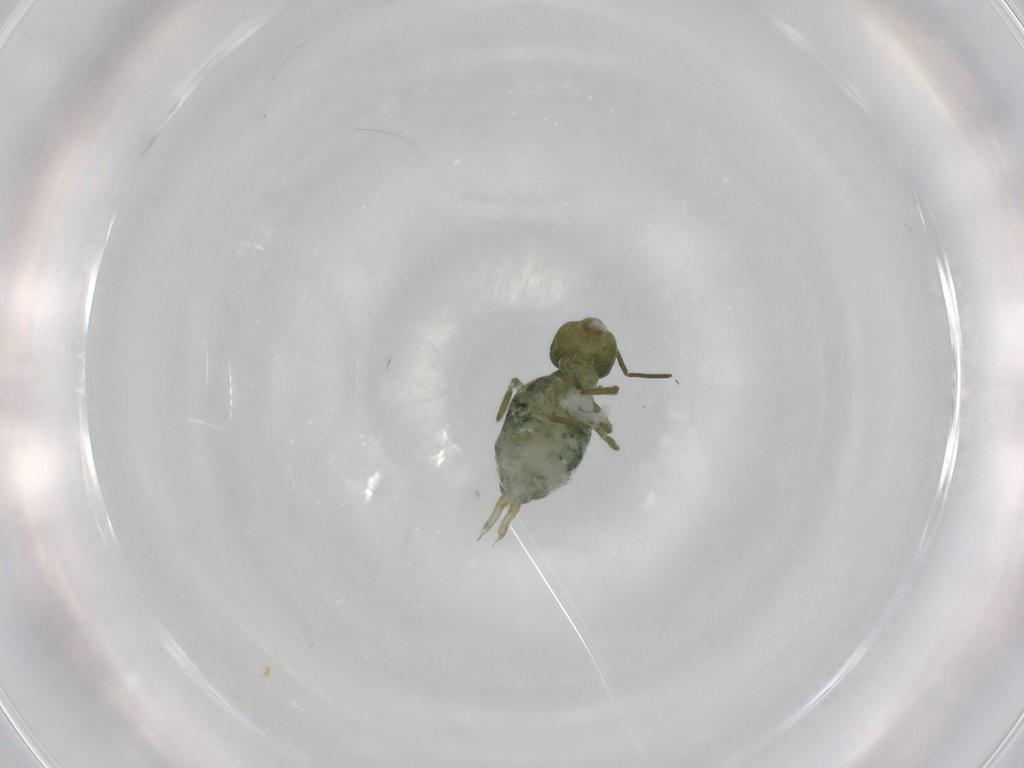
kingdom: Animalia
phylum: Arthropoda
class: Collembola
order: Symphypleona
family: Sminthuridae
